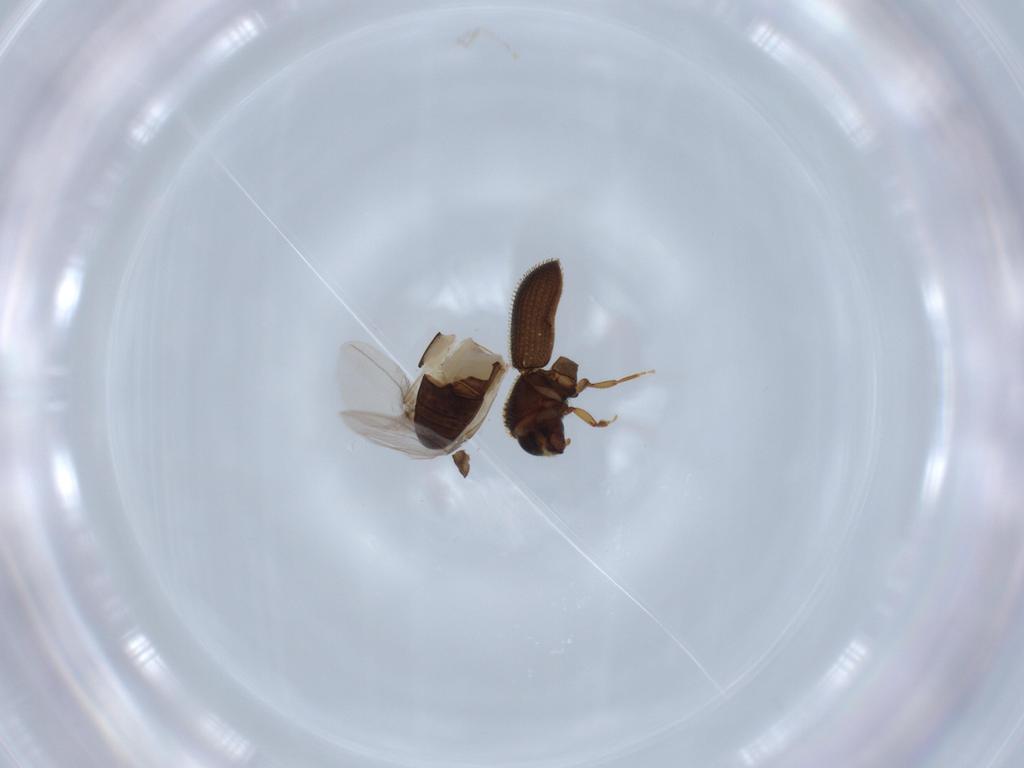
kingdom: Animalia
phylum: Arthropoda
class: Insecta
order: Coleoptera
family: Curculionidae
